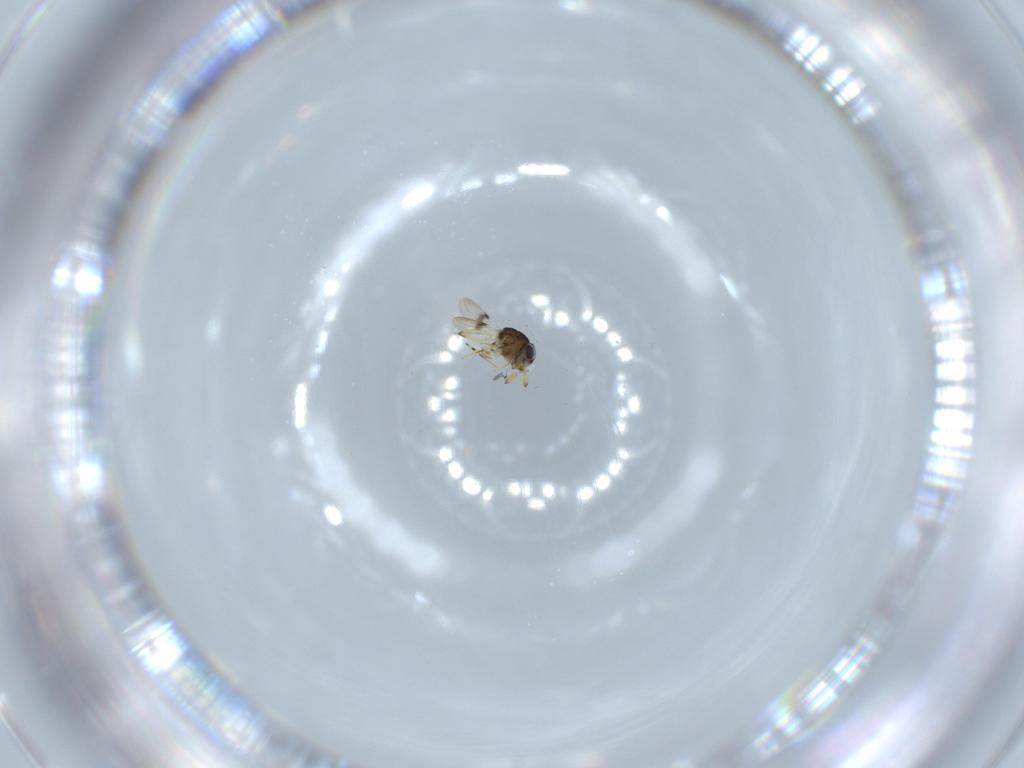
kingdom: Animalia
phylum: Arthropoda
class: Insecta
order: Hymenoptera
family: Scelionidae
